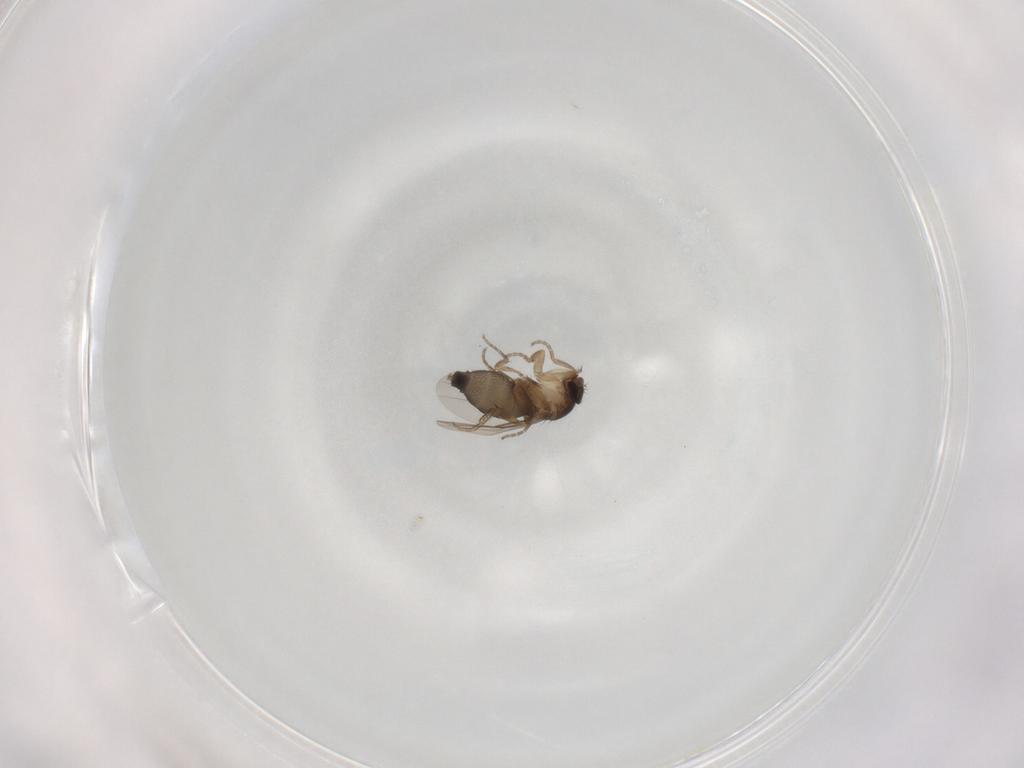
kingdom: Animalia
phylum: Arthropoda
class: Insecta
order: Diptera
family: Phoridae
